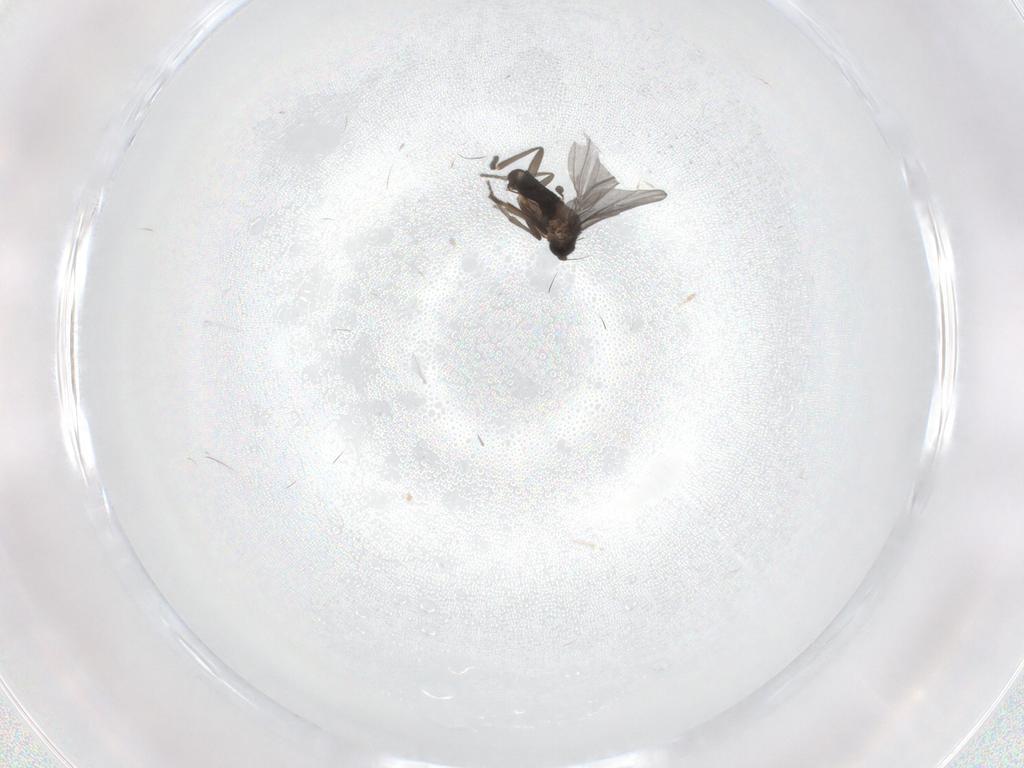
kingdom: Animalia
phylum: Arthropoda
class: Insecta
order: Diptera
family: Phoridae
